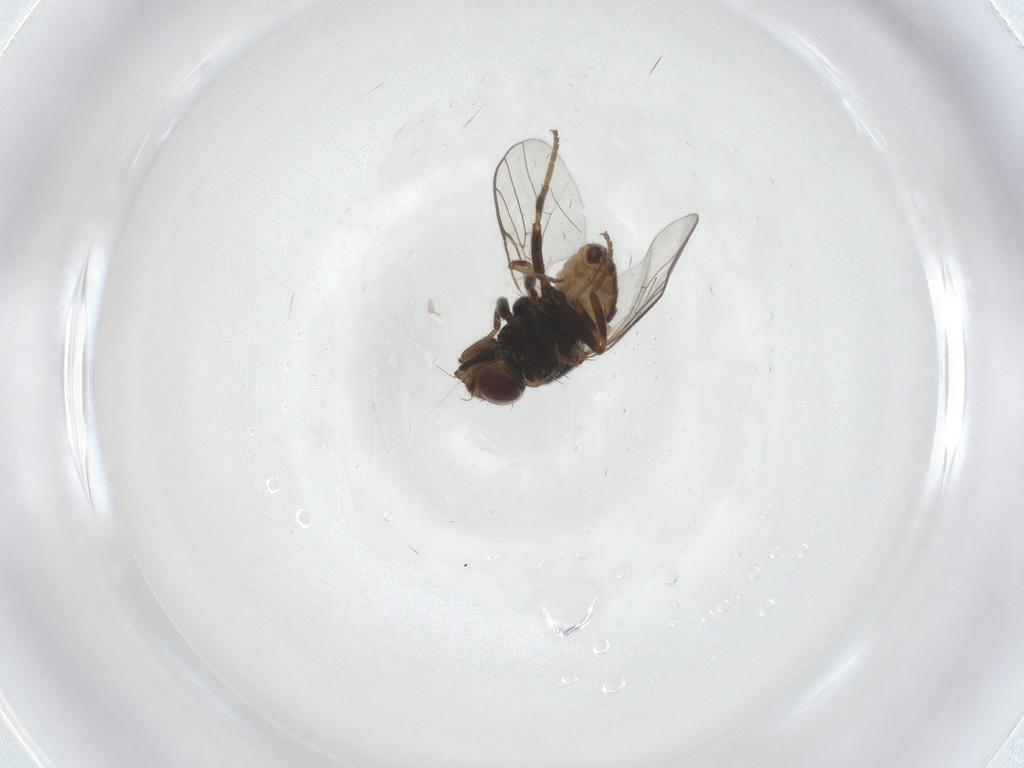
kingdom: Animalia
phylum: Arthropoda
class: Insecta
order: Diptera
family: Chloropidae
